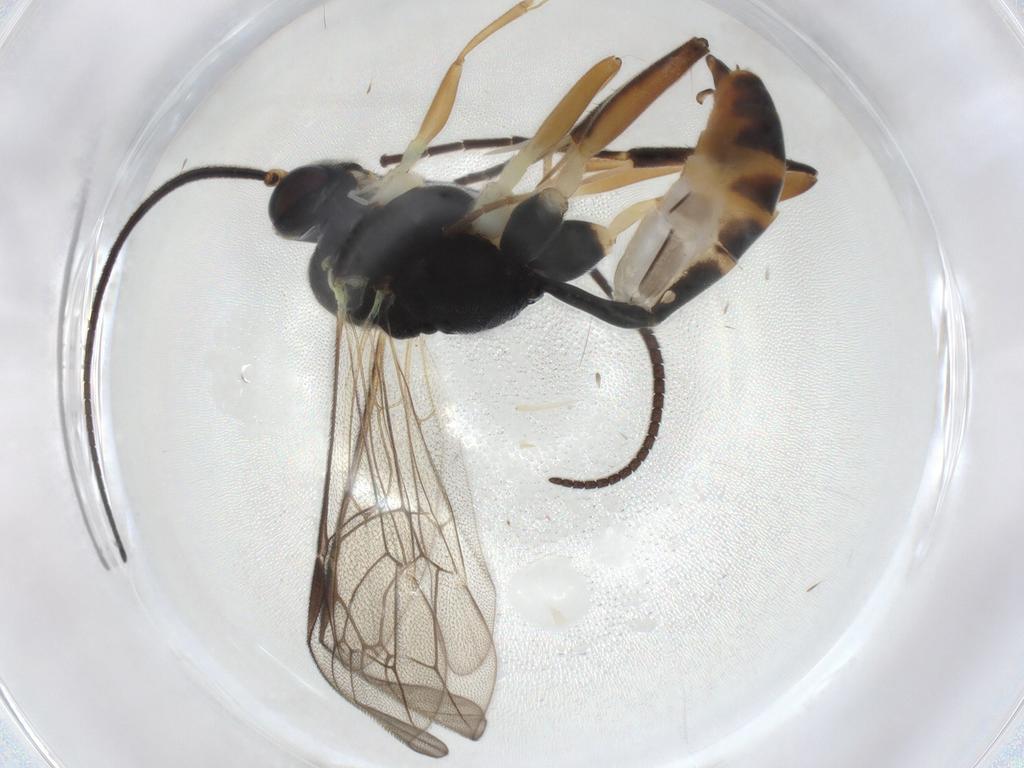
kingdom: Animalia
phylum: Arthropoda
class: Insecta
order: Hymenoptera
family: Ichneumonidae
